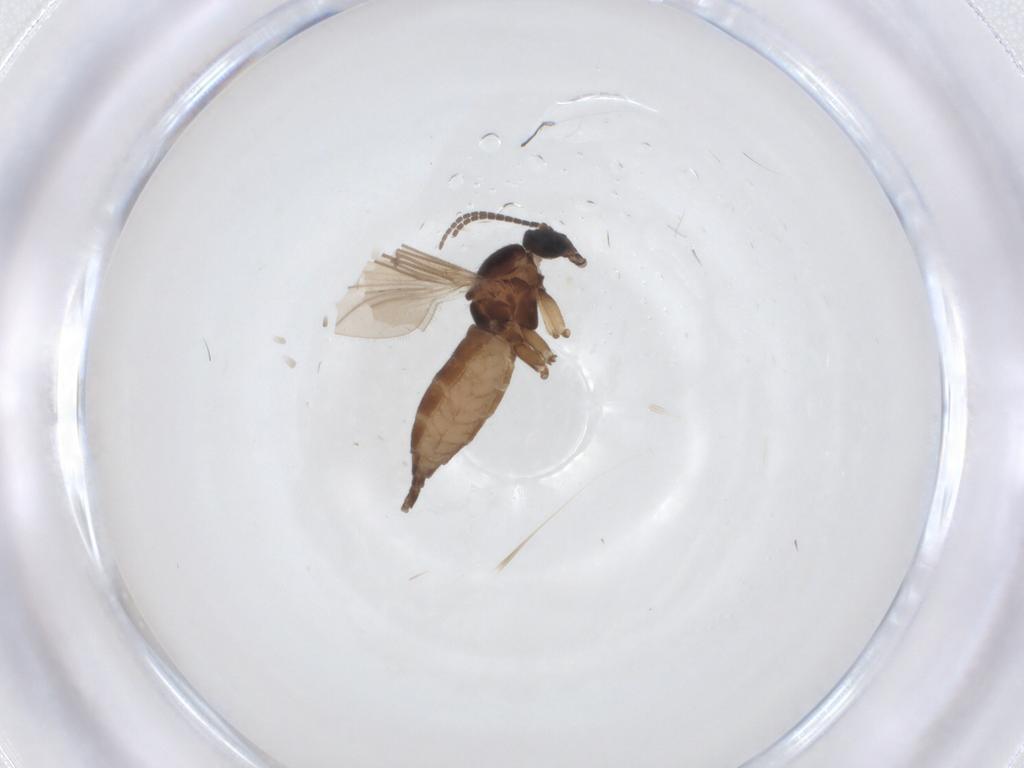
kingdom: Animalia
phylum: Arthropoda
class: Insecta
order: Diptera
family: Sciaridae
